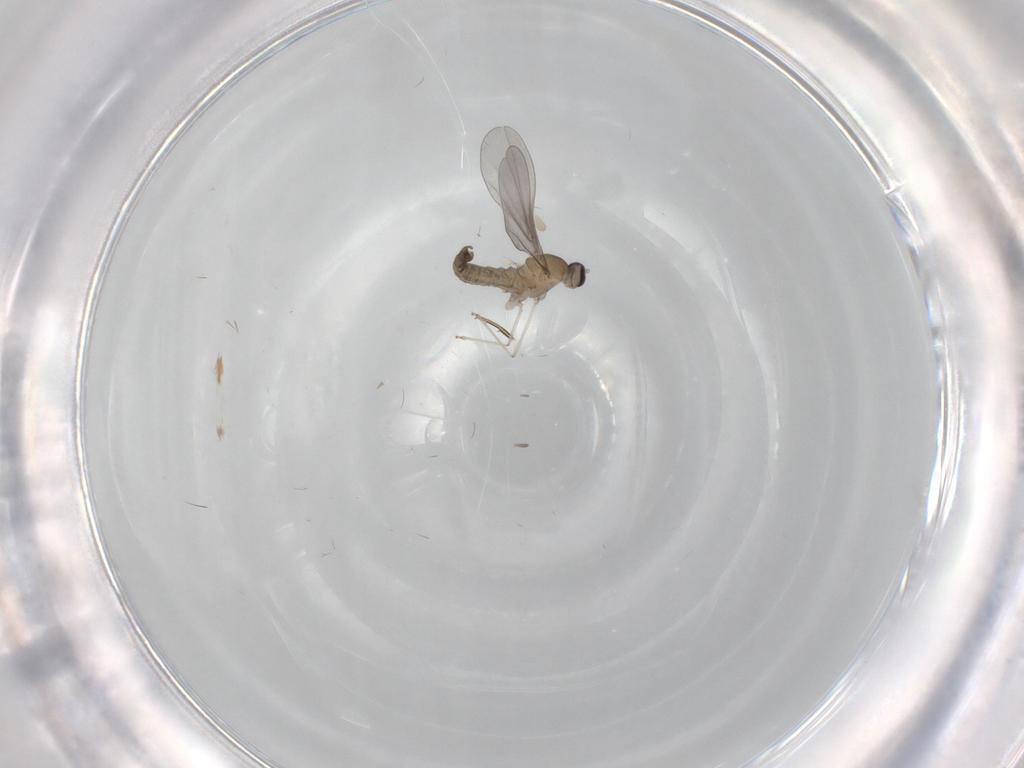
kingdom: Animalia
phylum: Arthropoda
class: Insecta
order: Diptera
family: Cecidomyiidae
